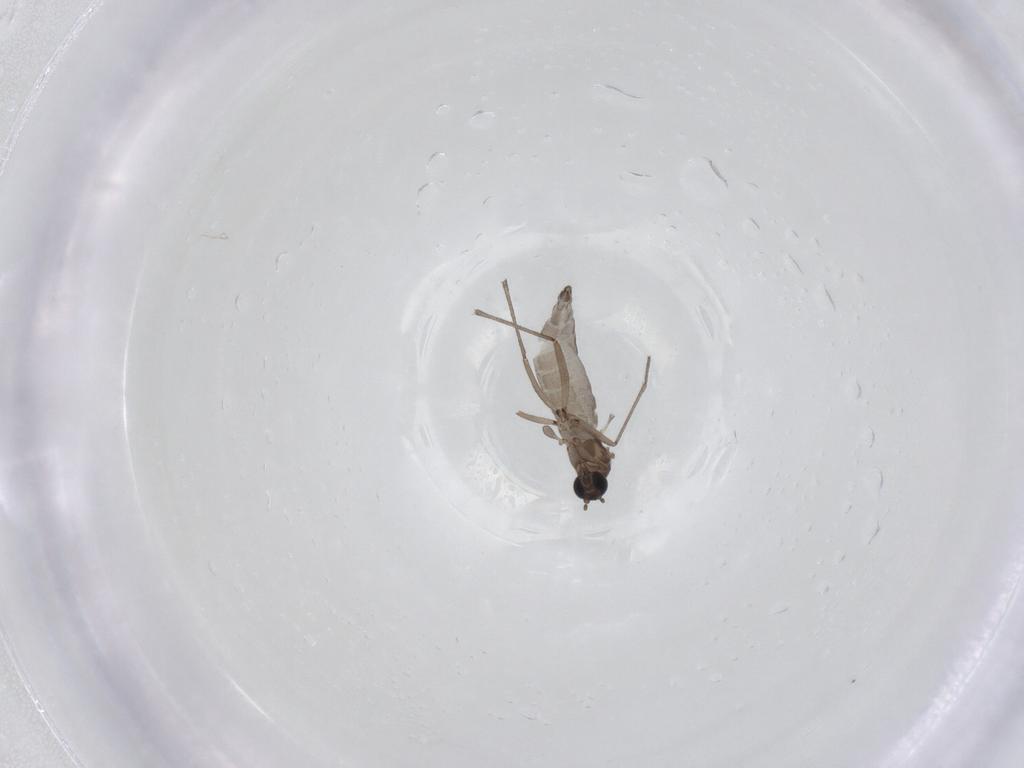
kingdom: Animalia
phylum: Arthropoda
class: Insecta
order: Diptera
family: Sciaridae
